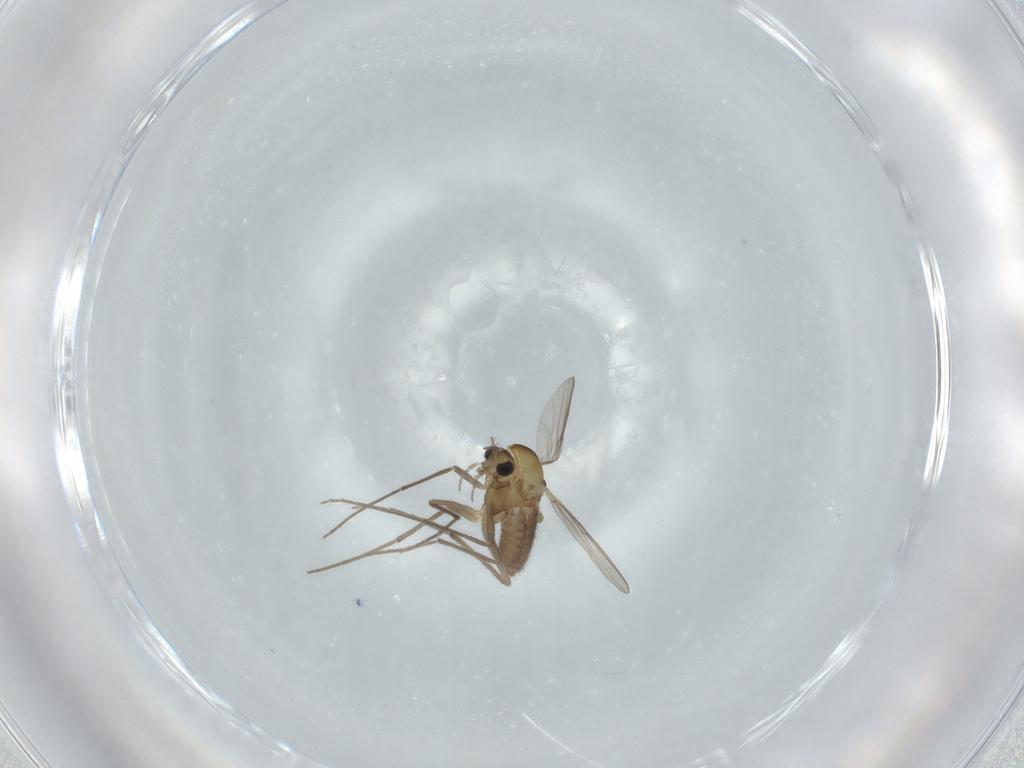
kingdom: Animalia
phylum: Arthropoda
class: Insecta
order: Diptera
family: Chironomidae
